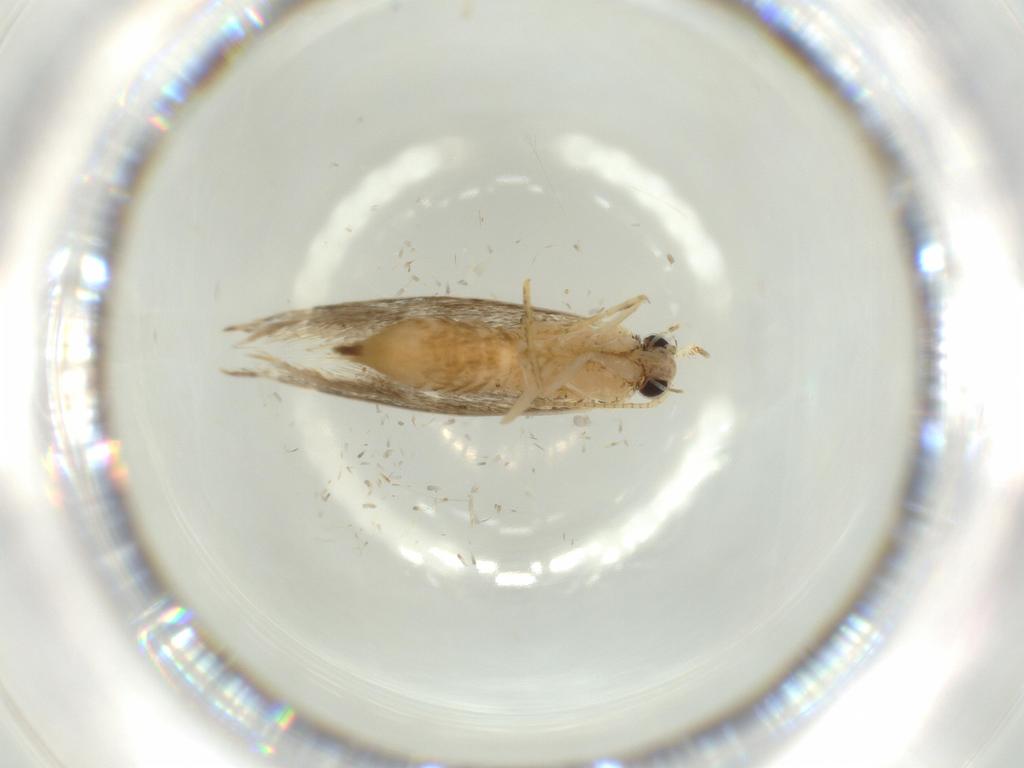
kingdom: Animalia
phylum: Arthropoda
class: Insecta
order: Lepidoptera
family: Tineidae
